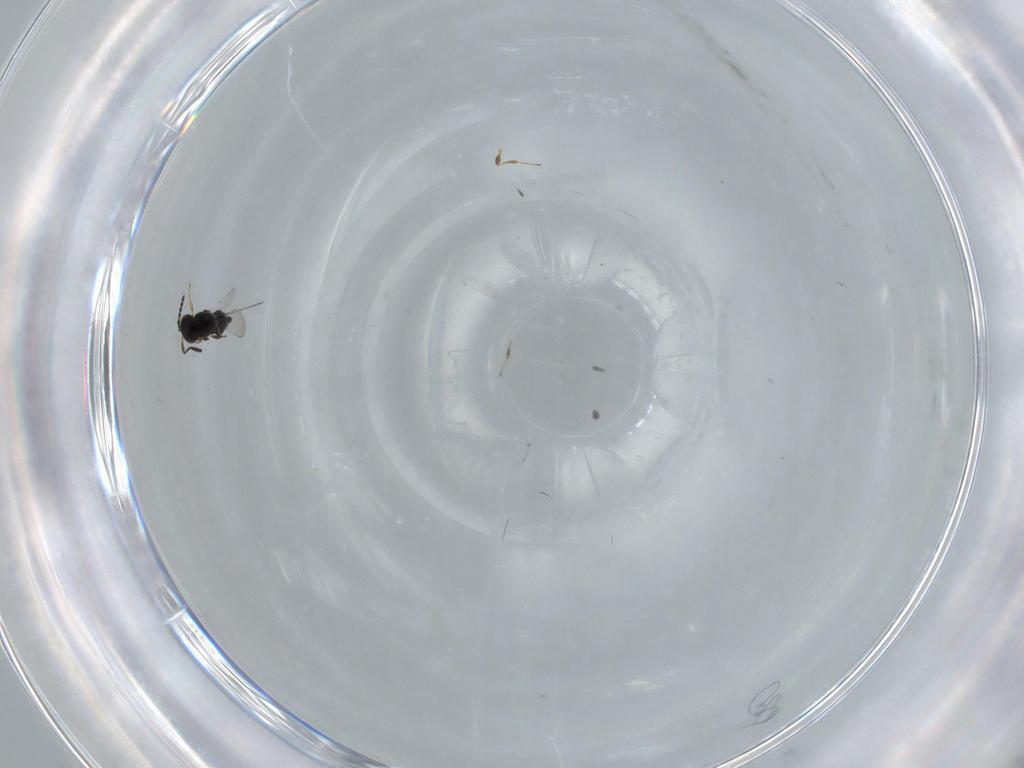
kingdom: Animalia
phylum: Arthropoda
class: Insecta
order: Hymenoptera
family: Platygastridae
